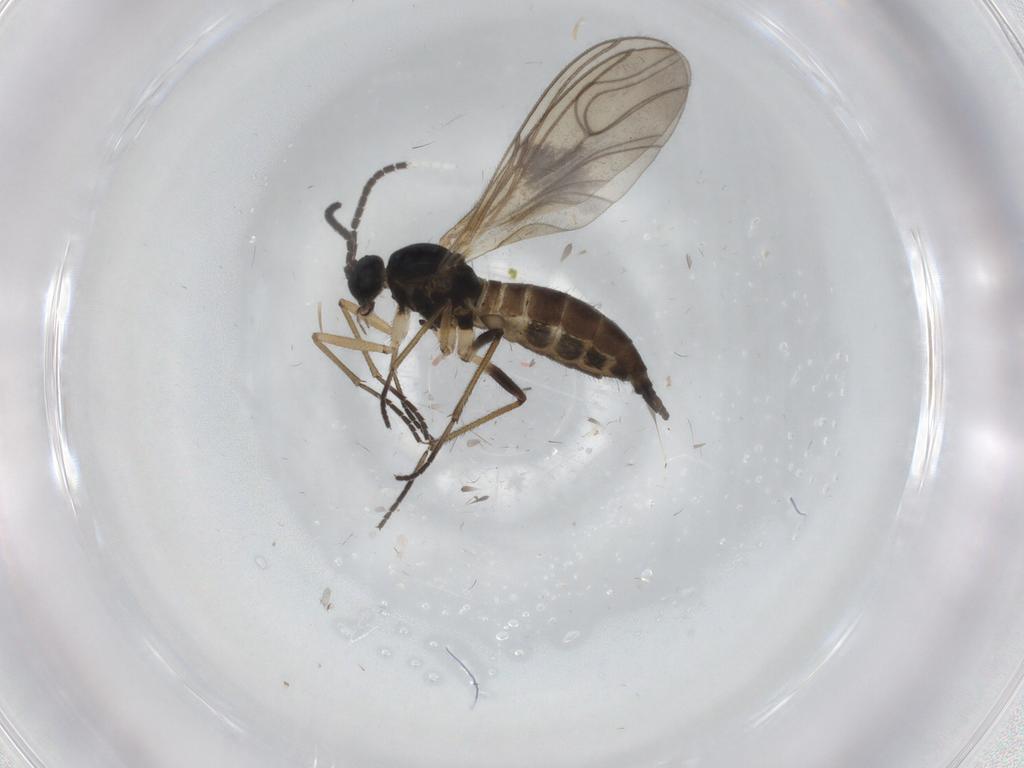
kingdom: Animalia
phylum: Arthropoda
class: Insecta
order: Diptera
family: Sciaridae
